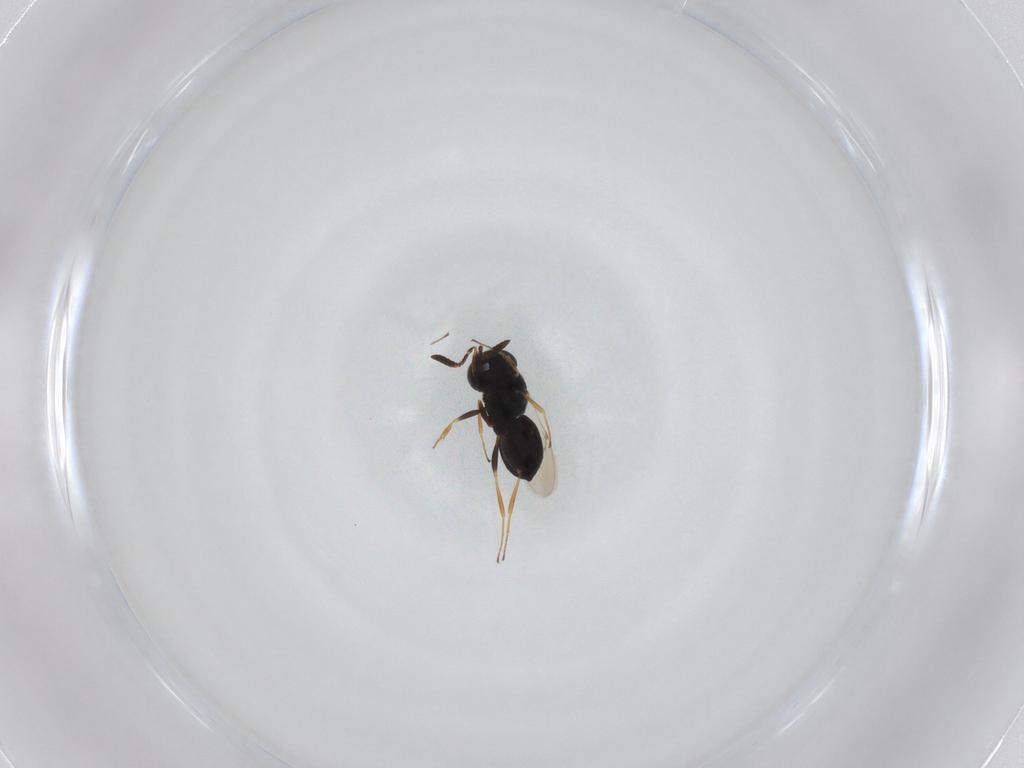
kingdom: Animalia
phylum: Arthropoda
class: Insecta
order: Hymenoptera
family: Scelionidae
